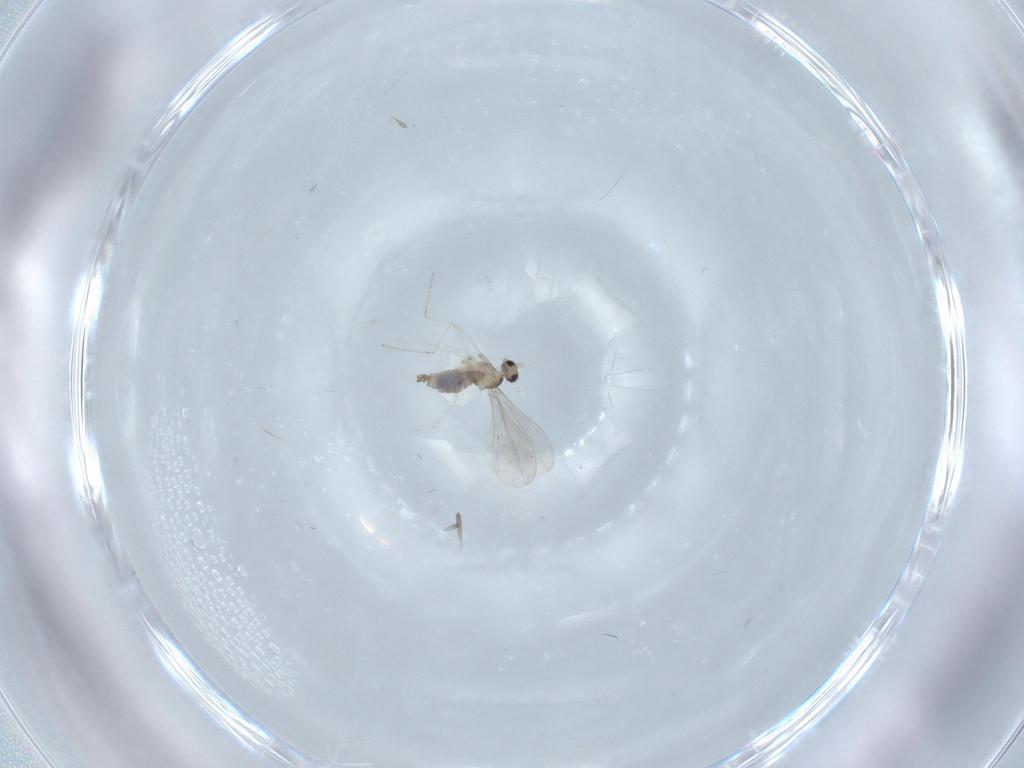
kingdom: Animalia
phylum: Arthropoda
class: Insecta
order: Diptera
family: Cecidomyiidae
